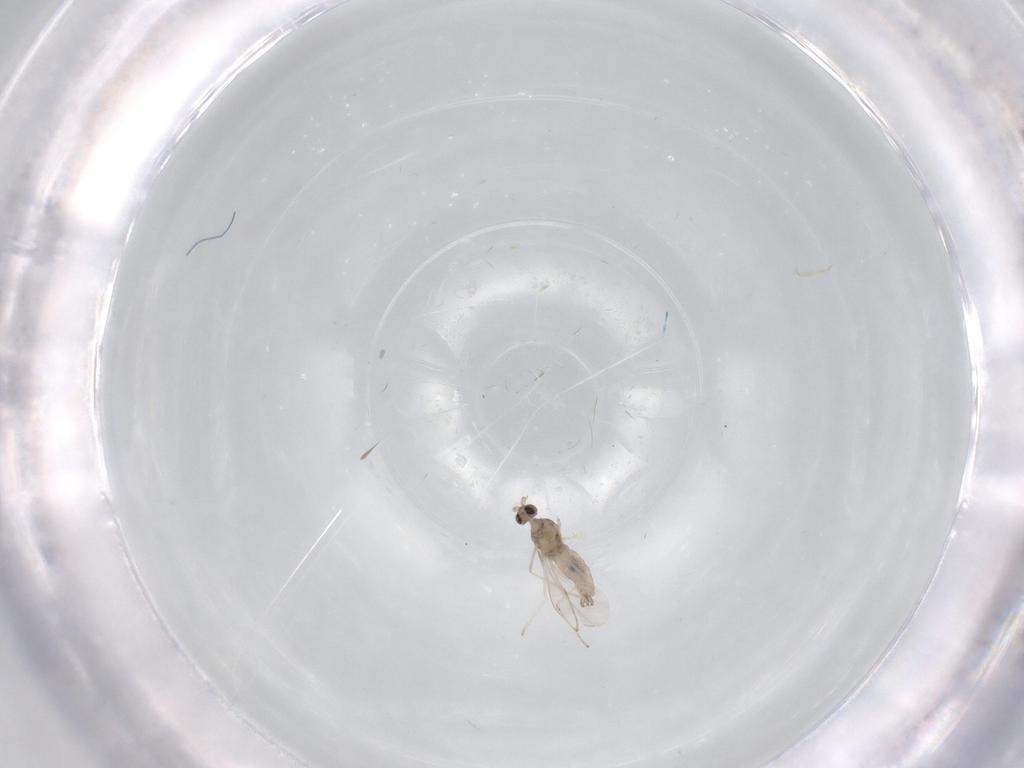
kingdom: Animalia
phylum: Arthropoda
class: Insecta
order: Diptera
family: Cecidomyiidae
